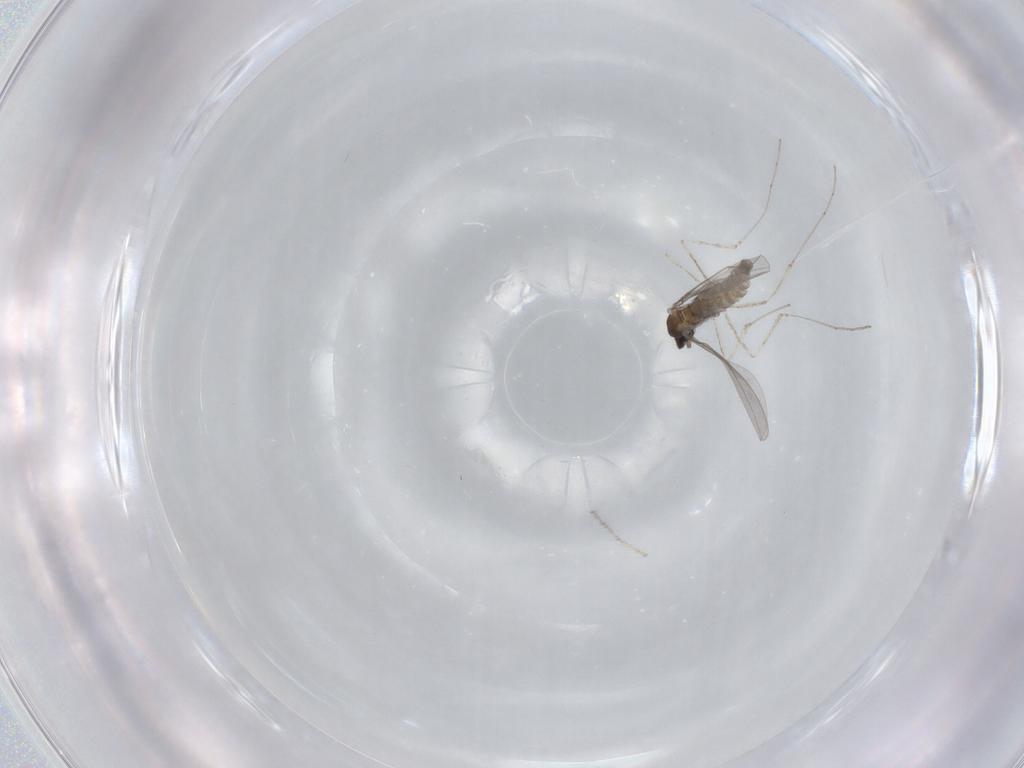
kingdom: Animalia
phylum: Arthropoda
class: Insecta
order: Diptera
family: Cecidomyiidae
